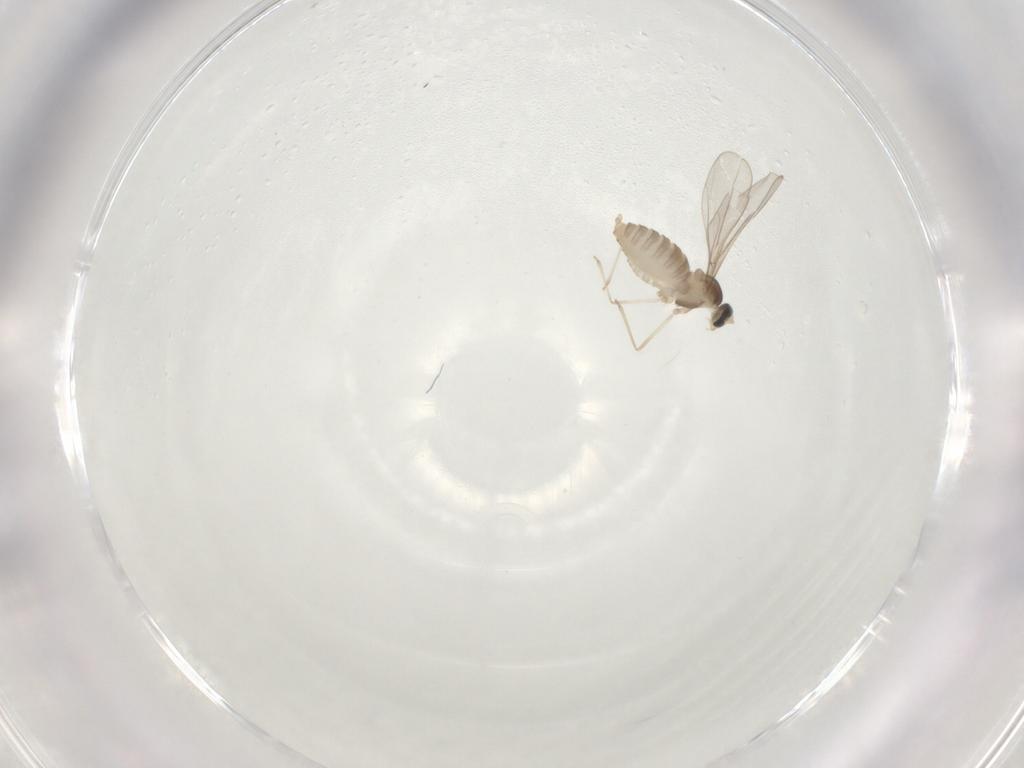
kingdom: Animalia
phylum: Arthropoda
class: Insecta
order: Diptera
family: Cecidomyiidae
